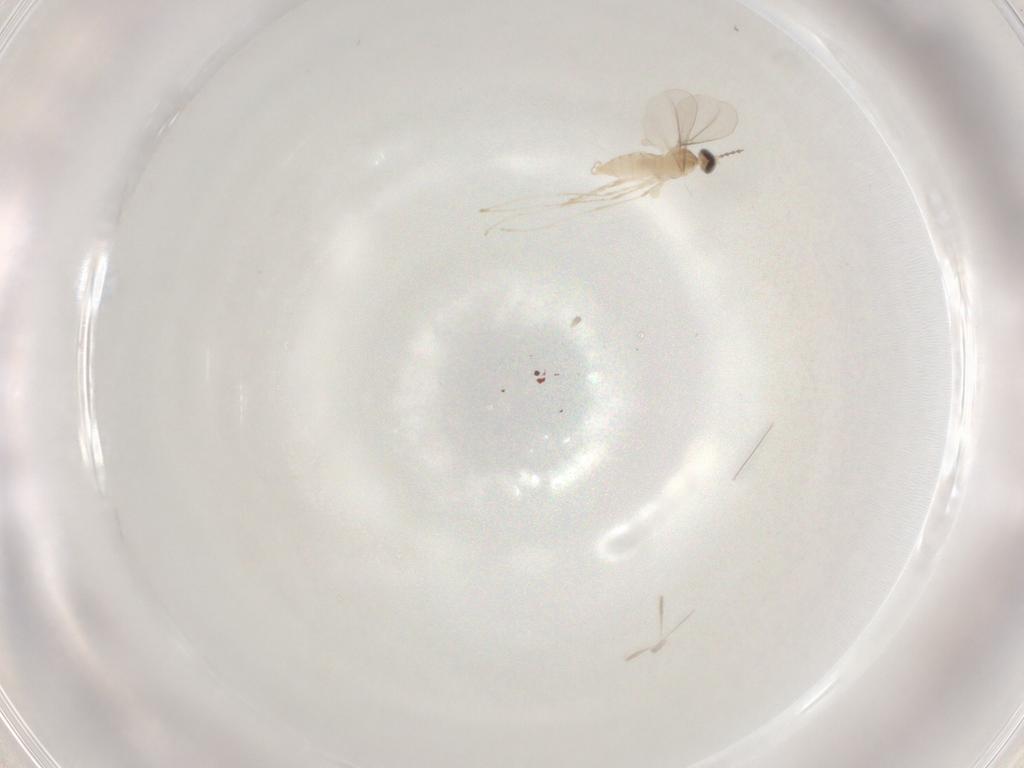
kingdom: Animalia
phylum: Arthropoda
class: Insecta
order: Diptera
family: Cecidomyiidae
